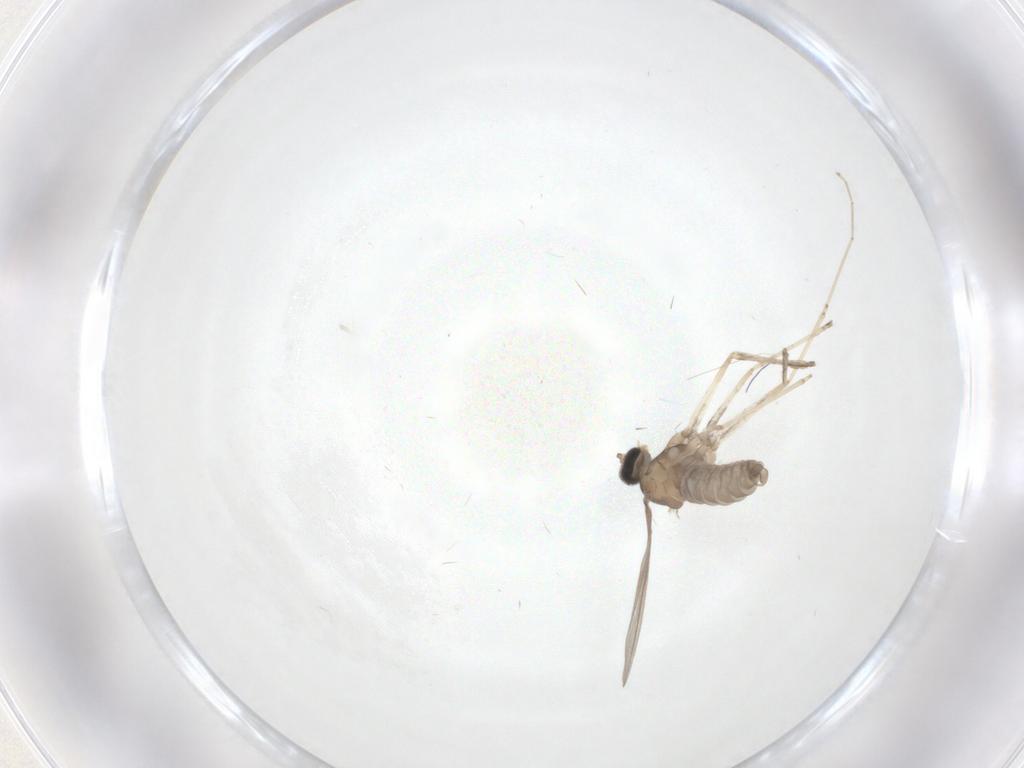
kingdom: Animalia
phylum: Arthropoda
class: Insecta
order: Diptera
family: Cecidomyiidae
